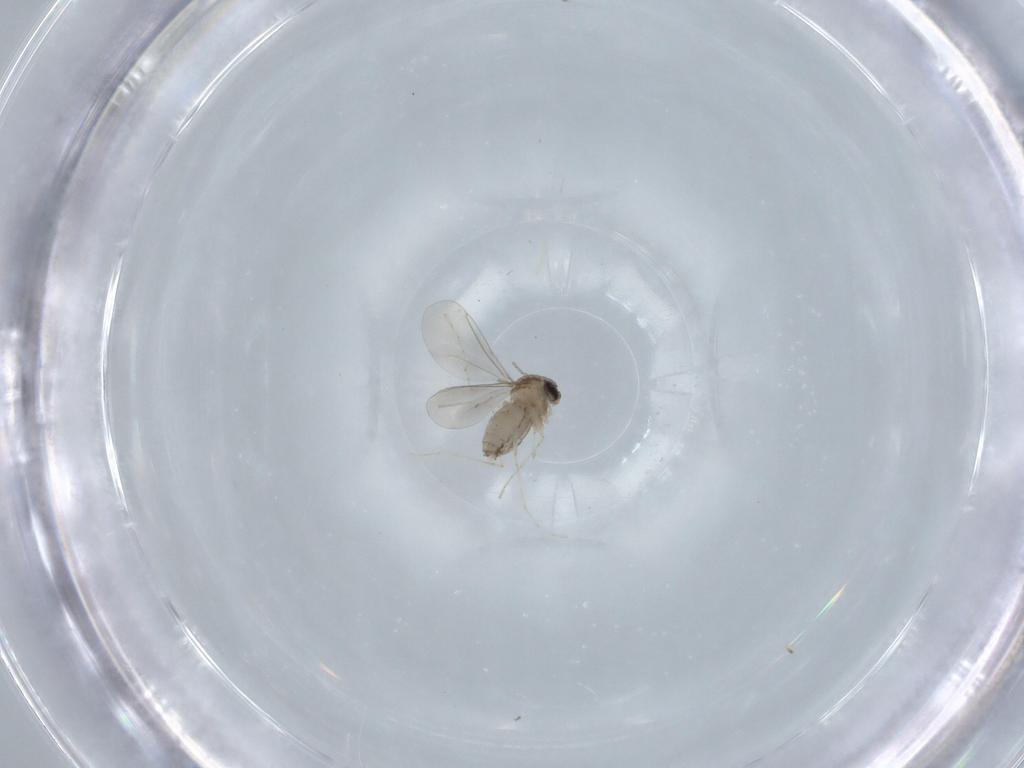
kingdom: Animalia
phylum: Arthropoda
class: Insecta
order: Diptera
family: Cecidomyiidae
